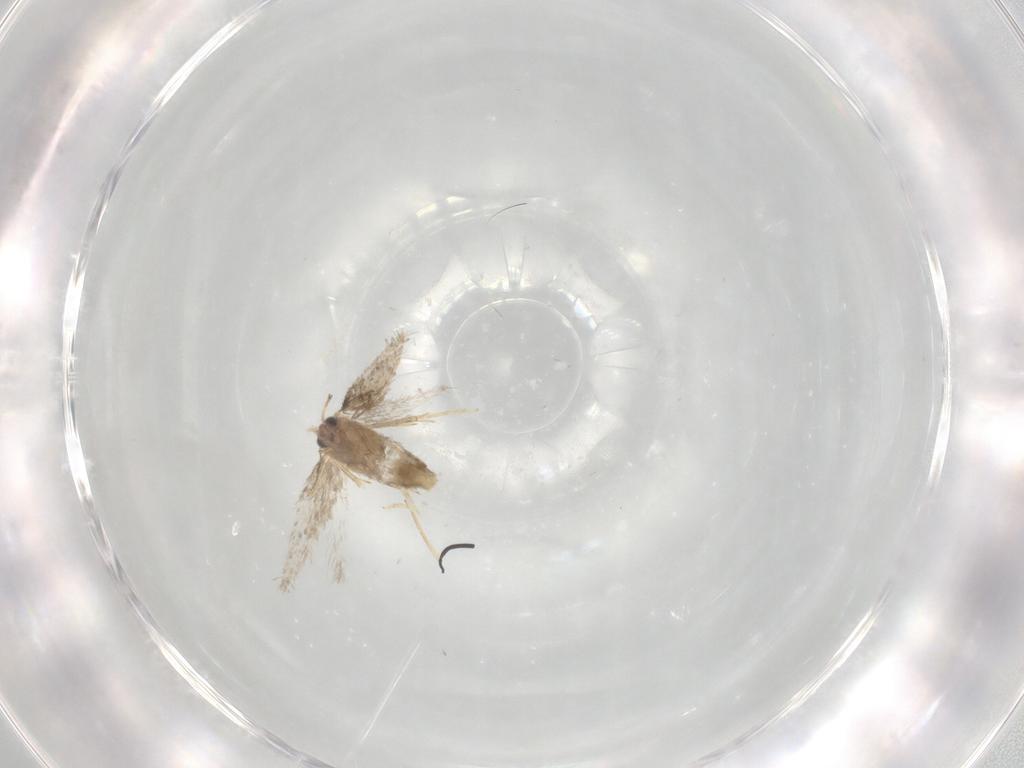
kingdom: Animalia
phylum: Arthropoda
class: Insecta
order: Lepidoptera
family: Nepticulidae
